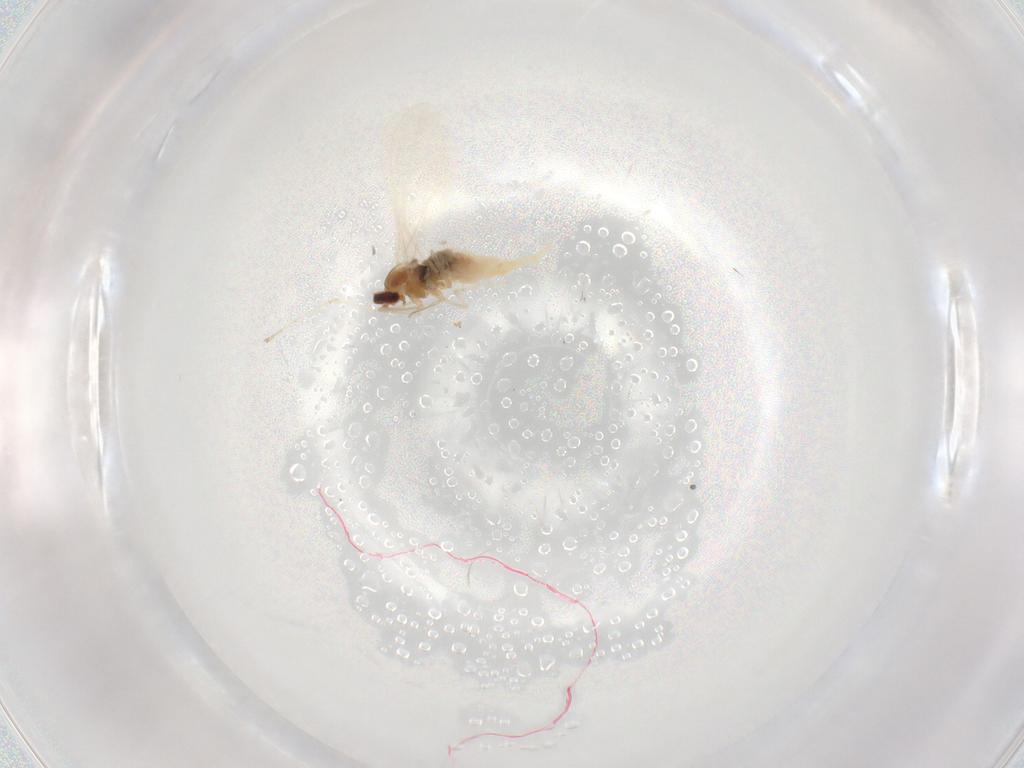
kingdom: Animalia
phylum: Arthropoda
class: Insecta
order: Diptera
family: Cecidomyiidae
